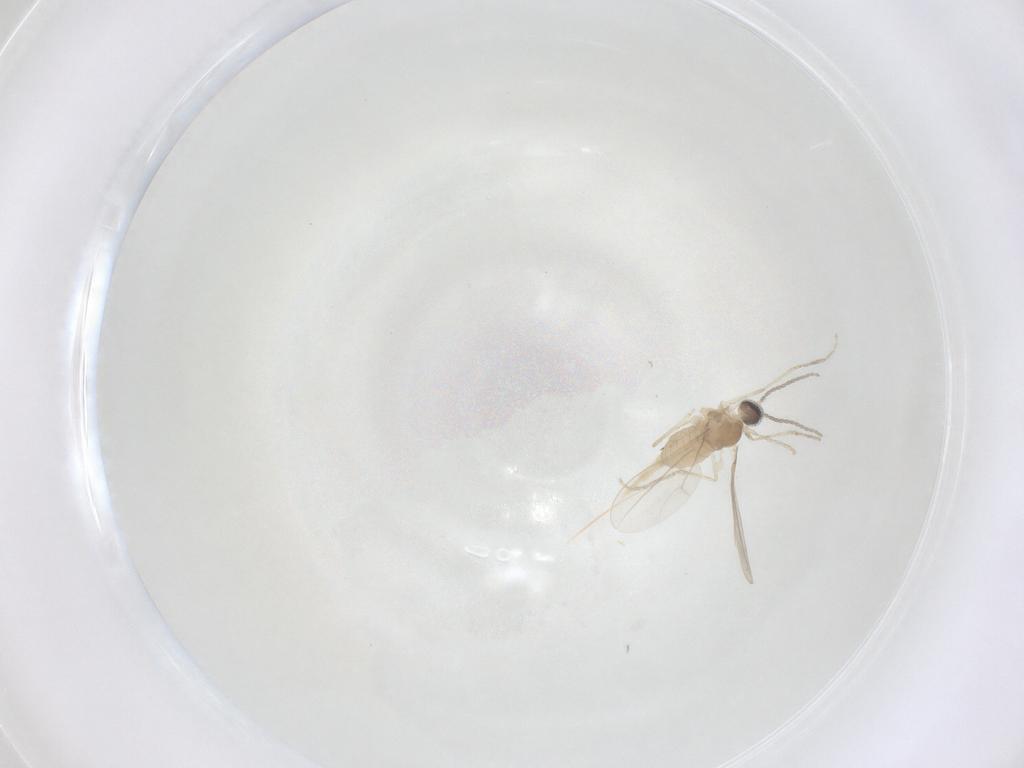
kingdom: Animalia
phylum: Arthropoda
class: Insecta
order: Diptera
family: Cecidomyiidae
